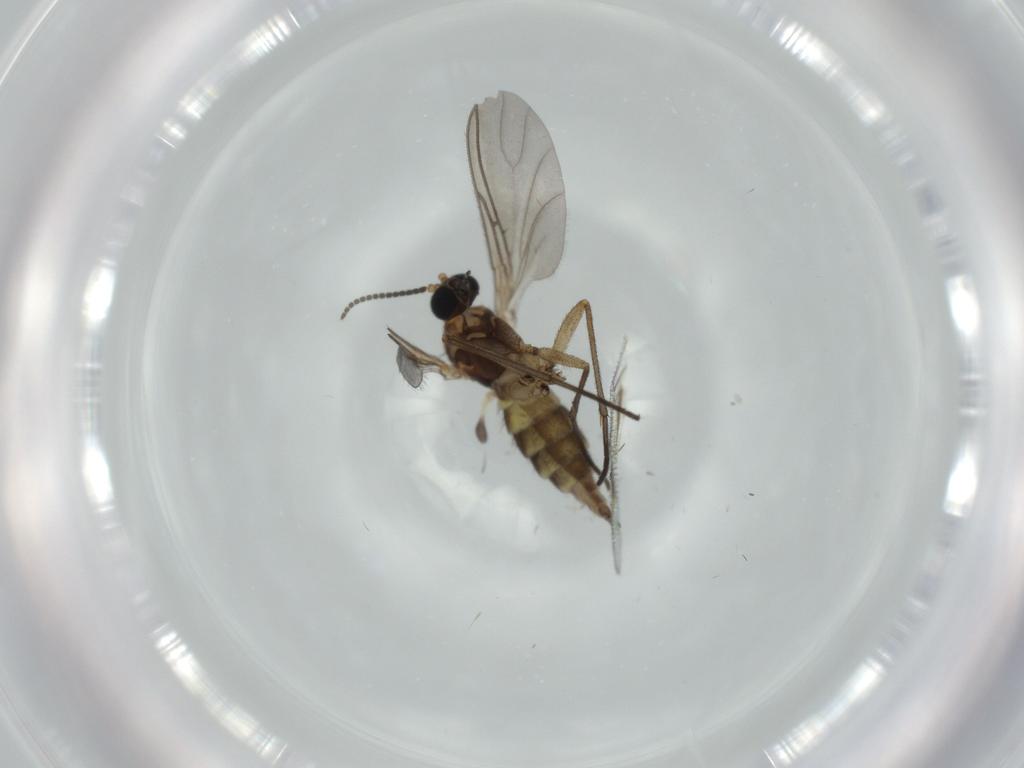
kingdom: Animalia
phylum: Arthropoda
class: Insecta
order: Diptera
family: Sciaridae
